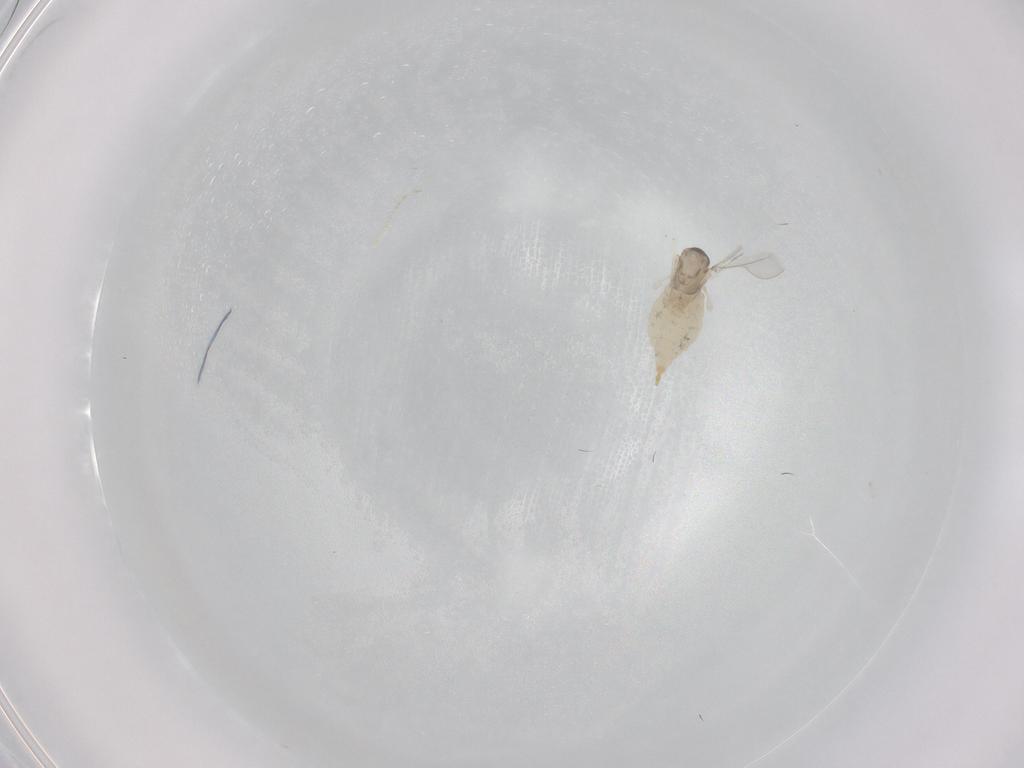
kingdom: Animalia
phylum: Arthropoda
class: Insecta
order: Diptera
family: Cecidomyiidae
